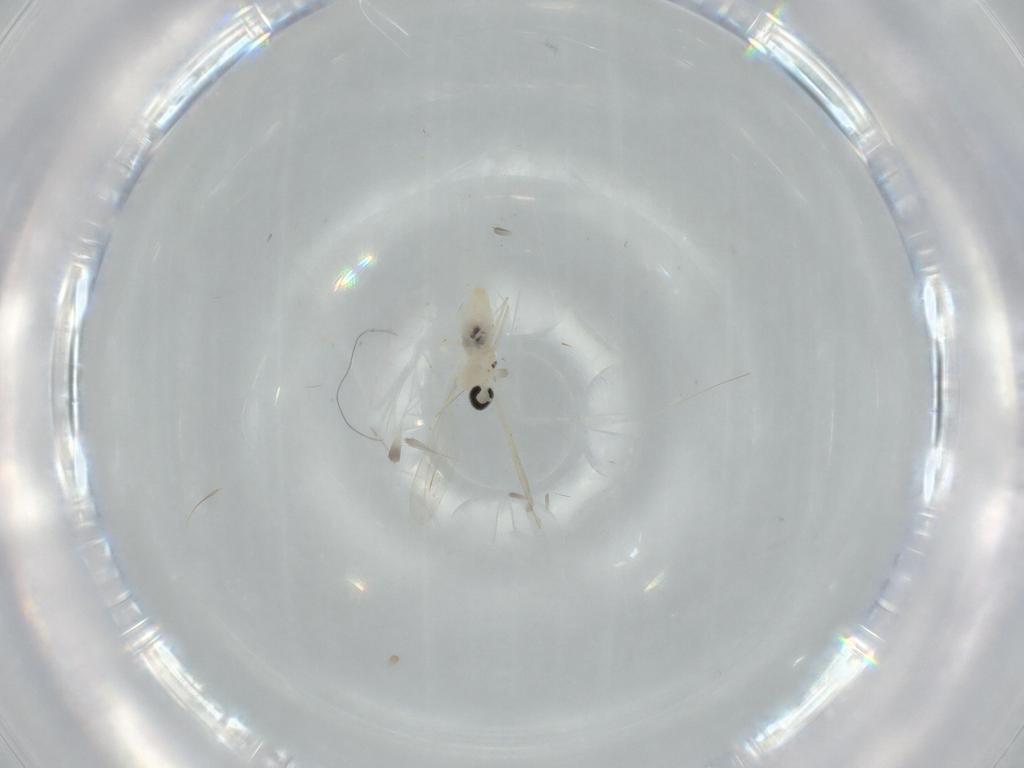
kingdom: Animalia
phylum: Arthropoda
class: Insecta
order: Diptera
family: Cecidomyiidae
